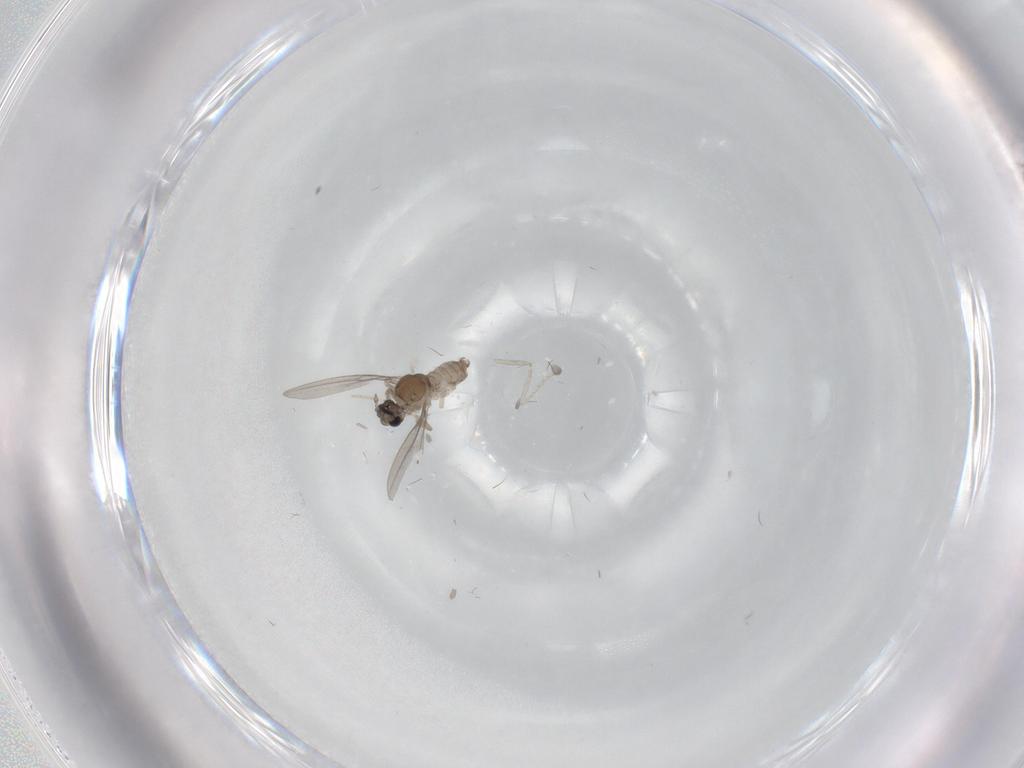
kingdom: Animalia
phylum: Arthropoda
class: Insecta
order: Diptera
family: Cecidomyiidae
